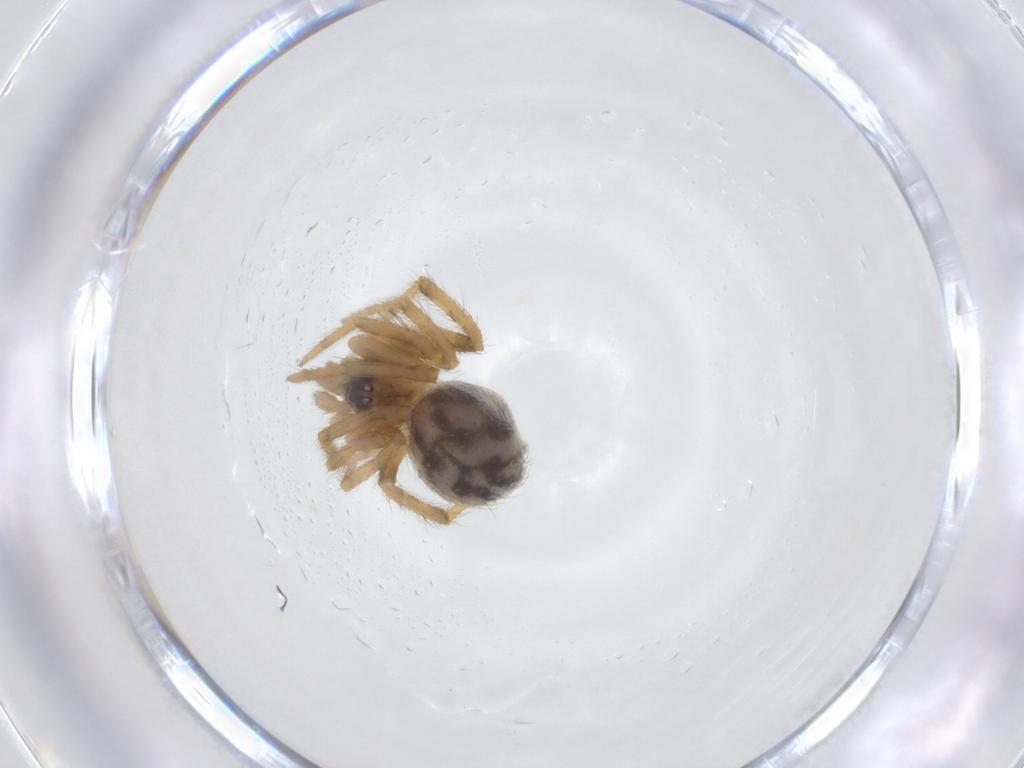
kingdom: Animalia
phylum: Arthropoda
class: Arachnida
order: Araneae
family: Theridiidae
